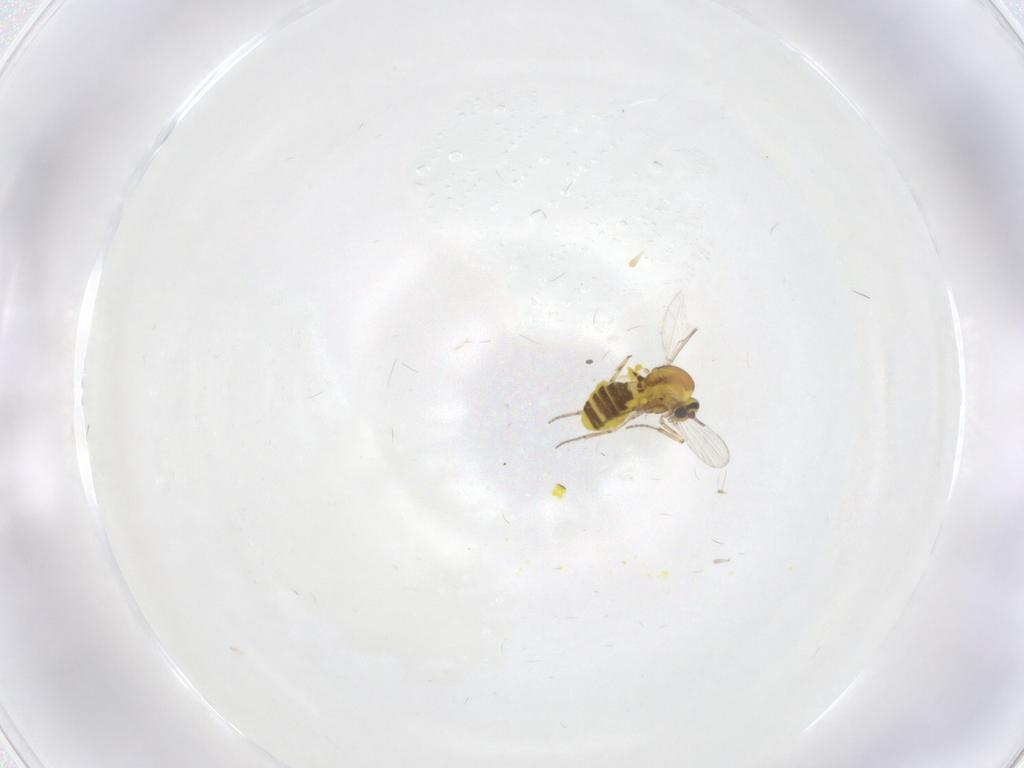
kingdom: Animalia
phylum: Arthropoda
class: Insecta
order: Diptera
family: Ceratopogonidae
